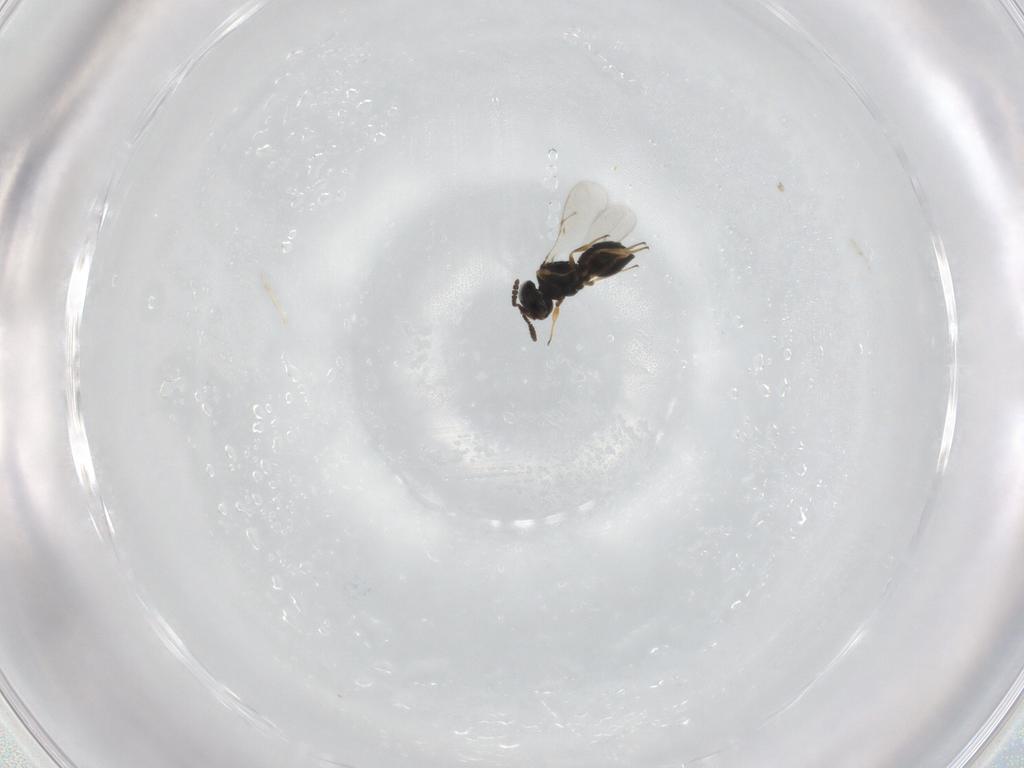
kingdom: Animalia
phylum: Arthropoda
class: Insecta
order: Hymenoptera
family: Scelionidae
